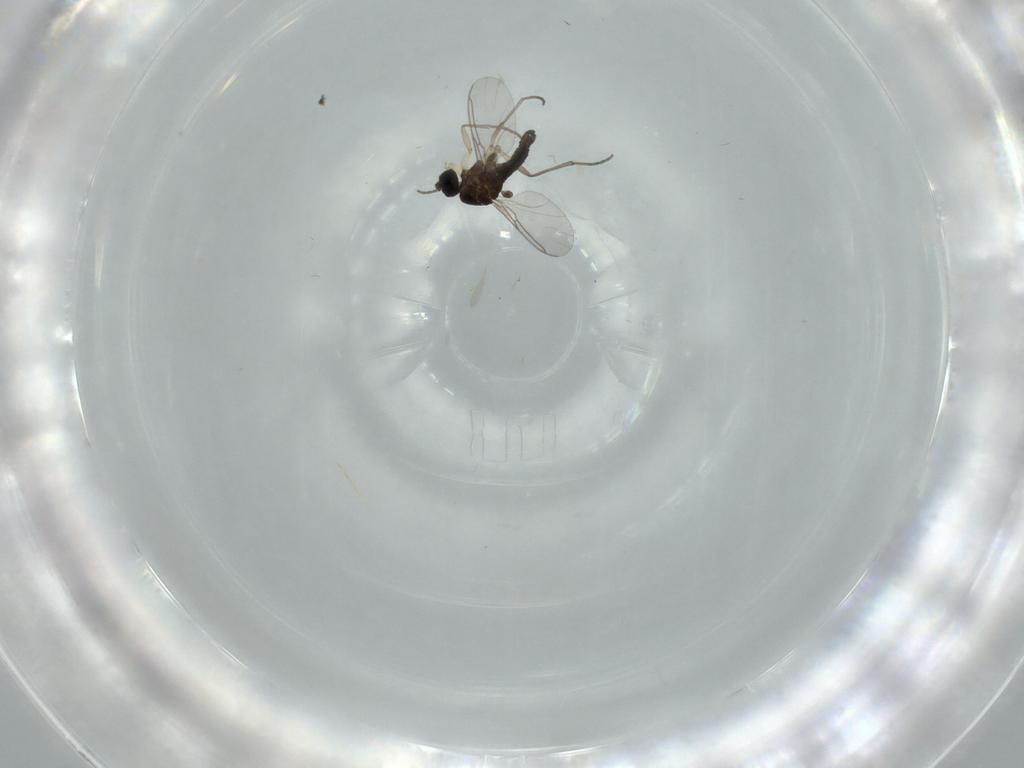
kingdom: Animalia
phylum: Arthropoda
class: Insecta
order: Diptera
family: Sciaridae
